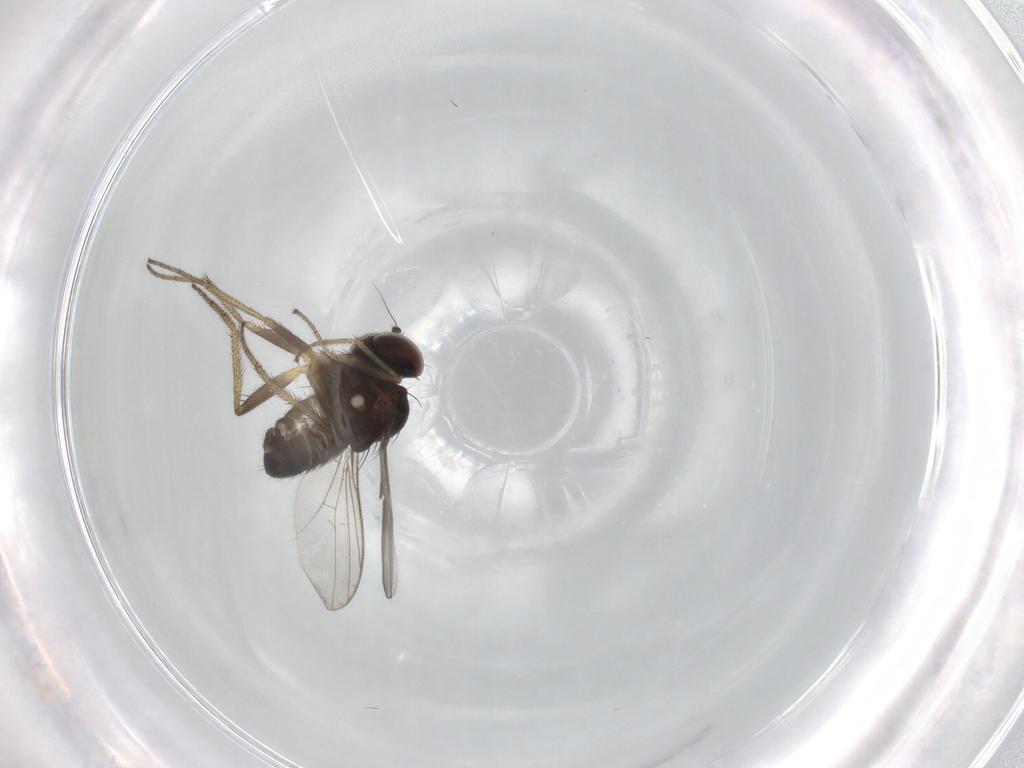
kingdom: Animalia
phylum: Arthropoda
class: Insecta
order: Diptera
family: Dolichopodidae
